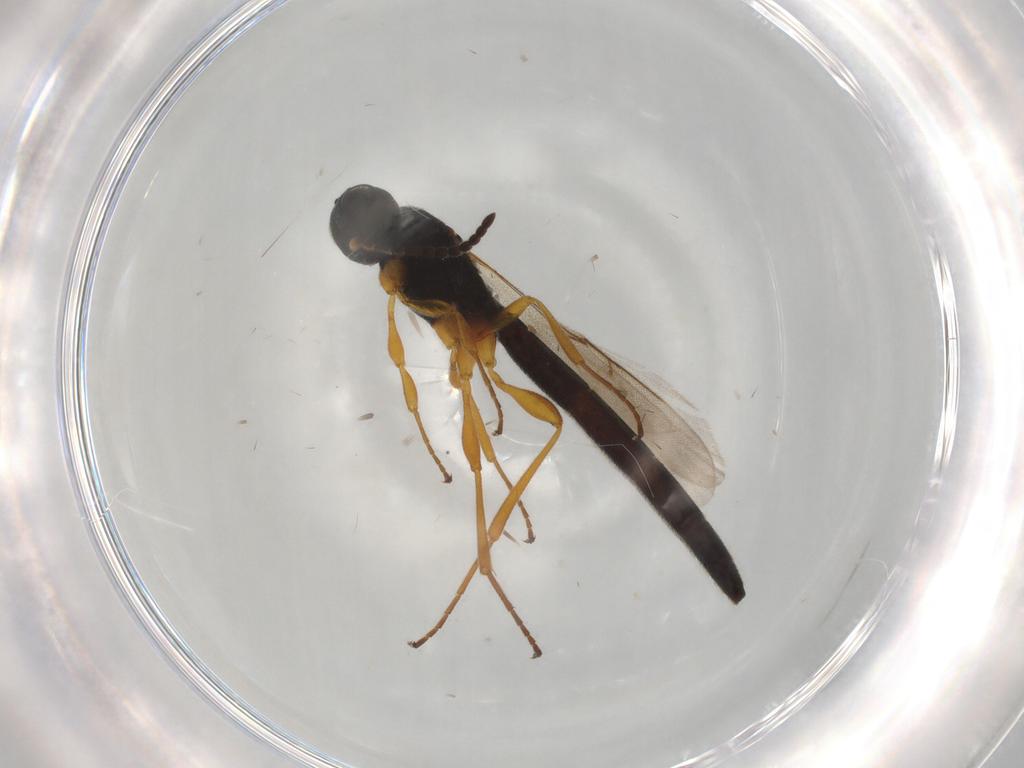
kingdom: Animalia
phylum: Arthropoda
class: Insecta
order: Hymenoptera
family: Scelionidae
